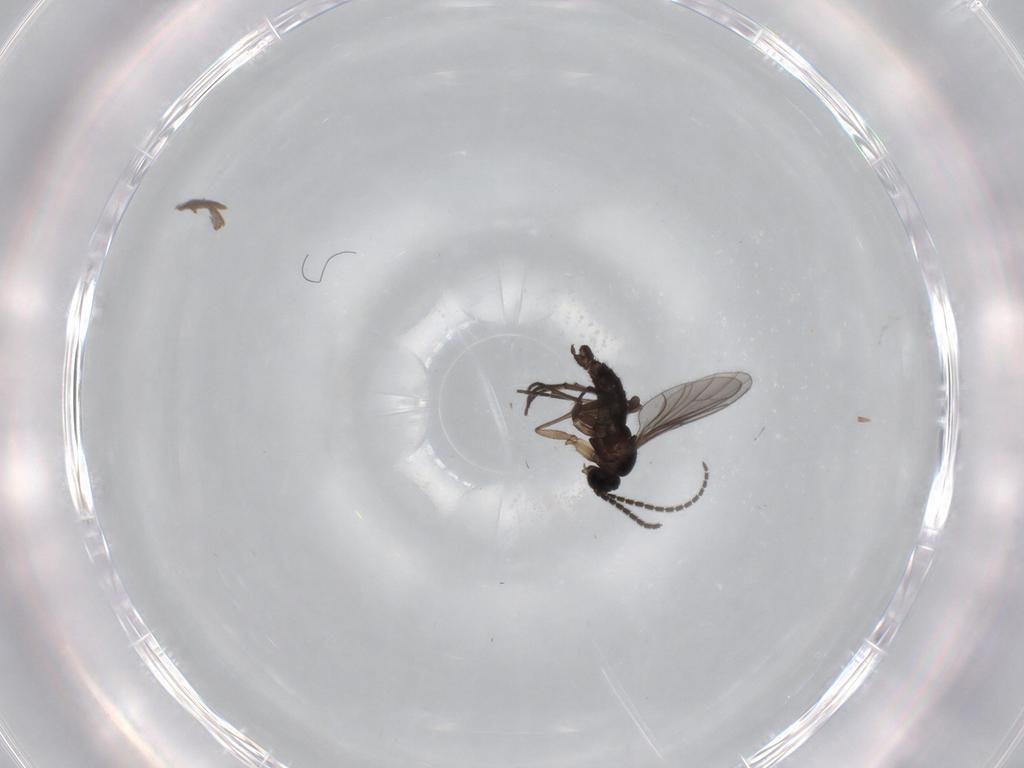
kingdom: Animalia
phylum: Arthropoda
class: Insecta
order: Diptera
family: Sciaridae
